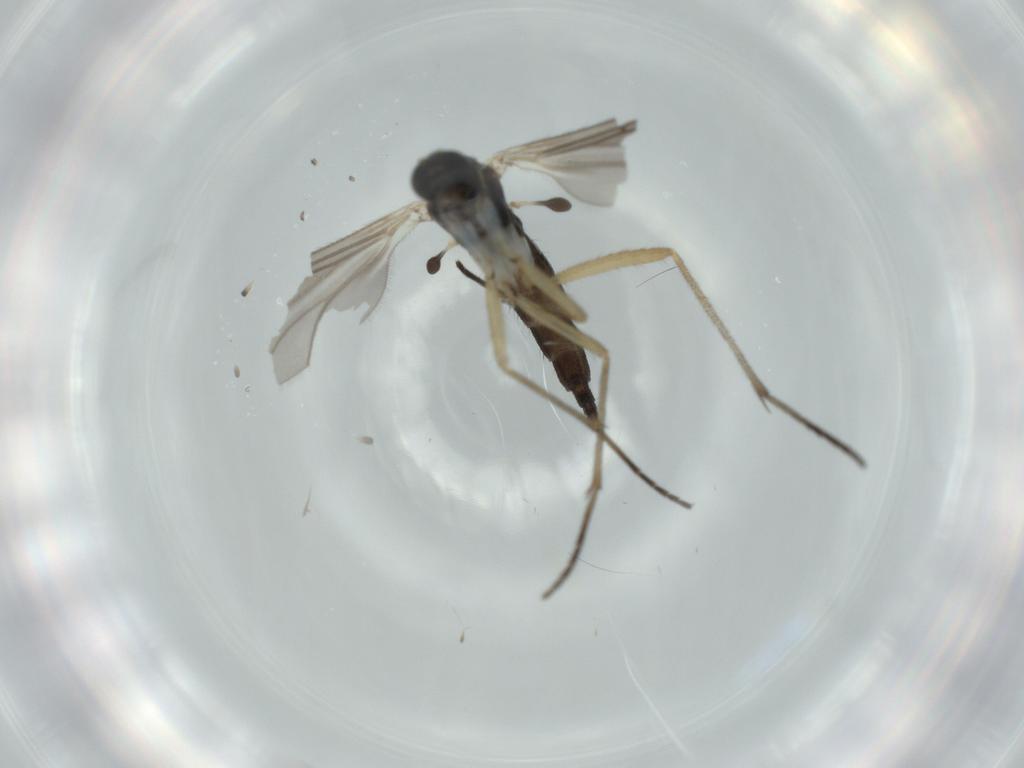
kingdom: Animalia
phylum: Arthropoda
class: Insecta
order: Diptera
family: Sciaridae
